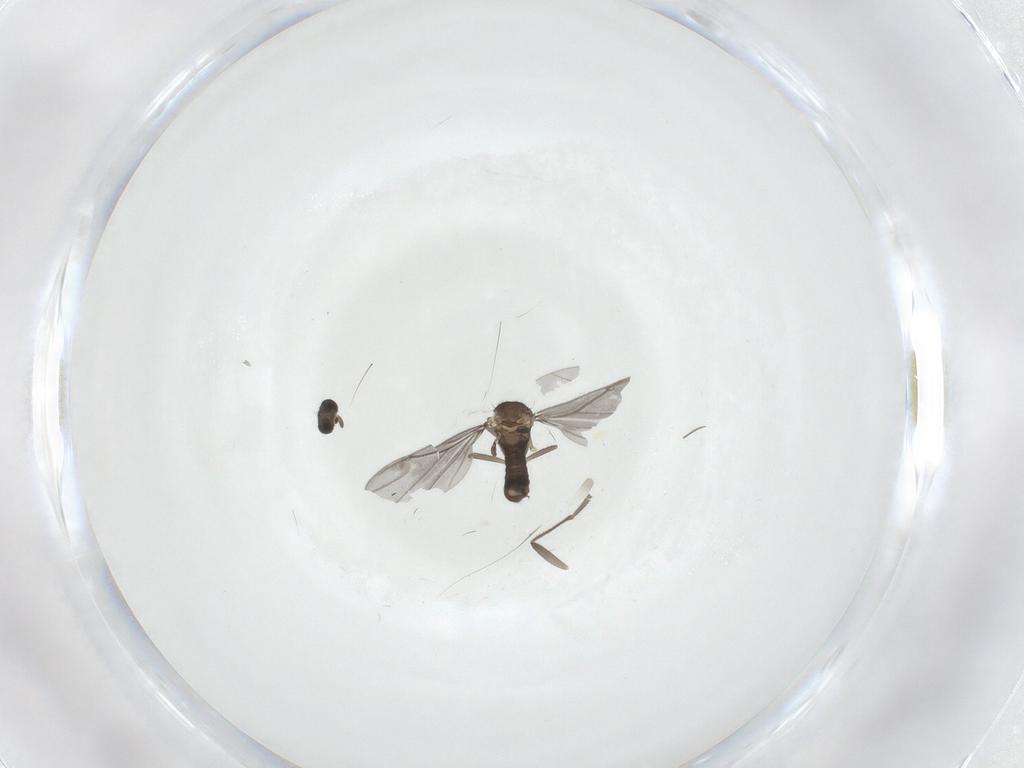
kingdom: Animalia
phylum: Arthropoda
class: Insecta
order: Diptera
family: Phoridae
